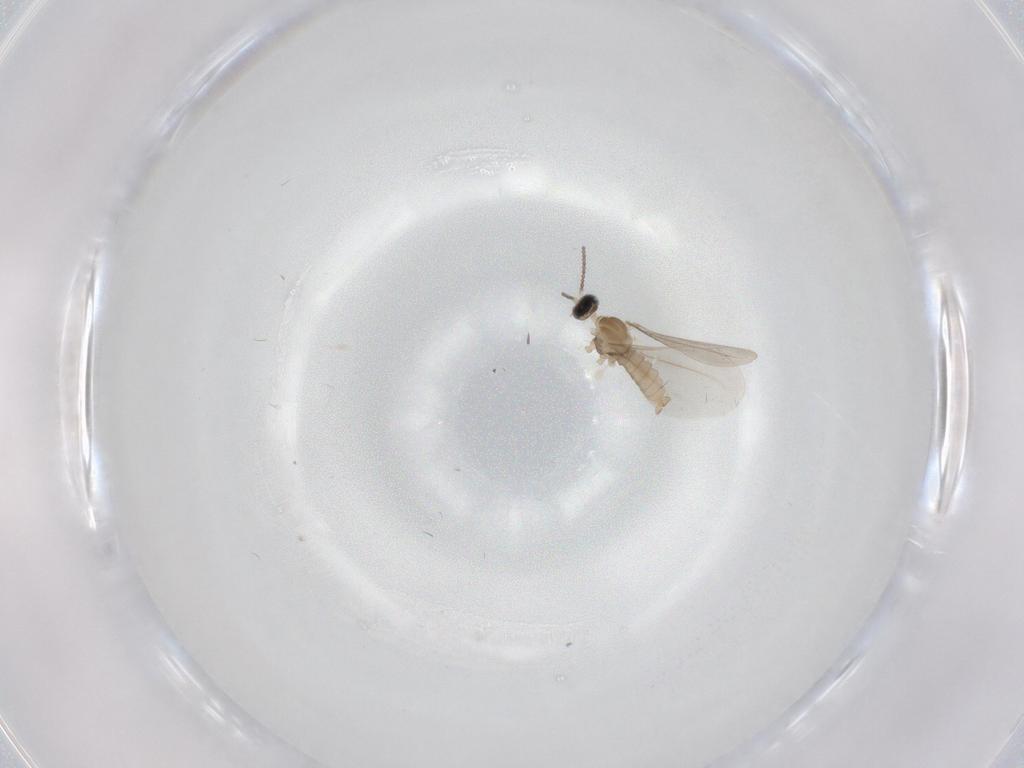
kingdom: Animalia
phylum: Arthropoda
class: Insecta
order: Diptera
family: Cecidomyiidae
